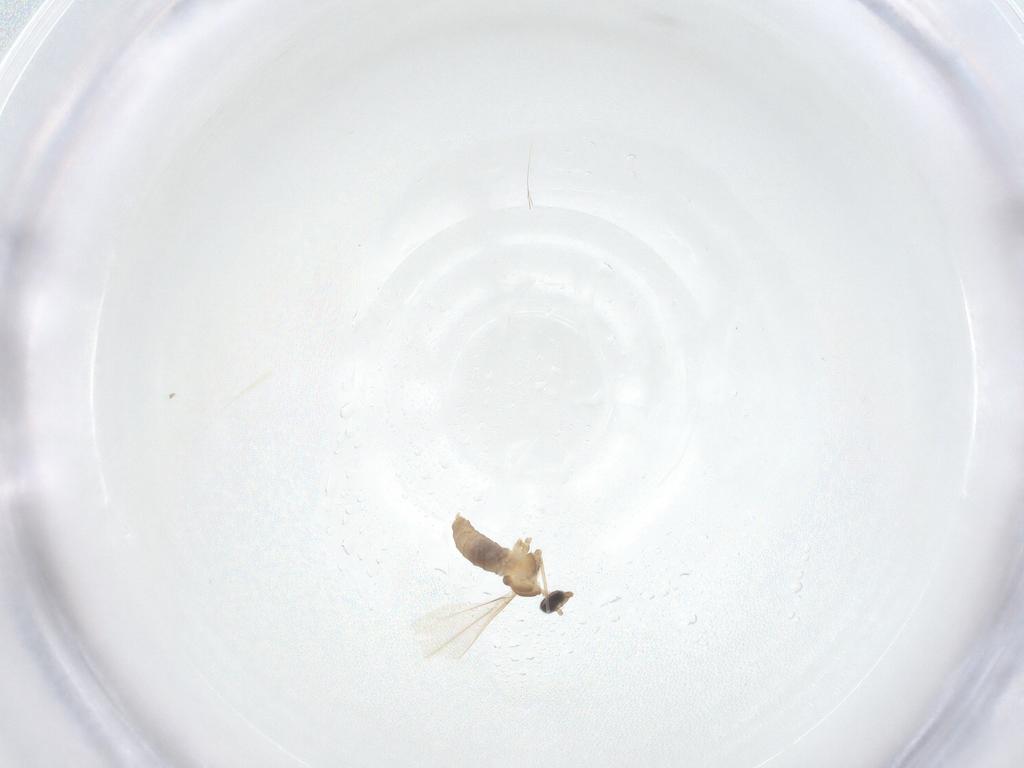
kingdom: Animalia
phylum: Arthropoda
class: Insecta
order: Diptera
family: Cecidomyiidae
